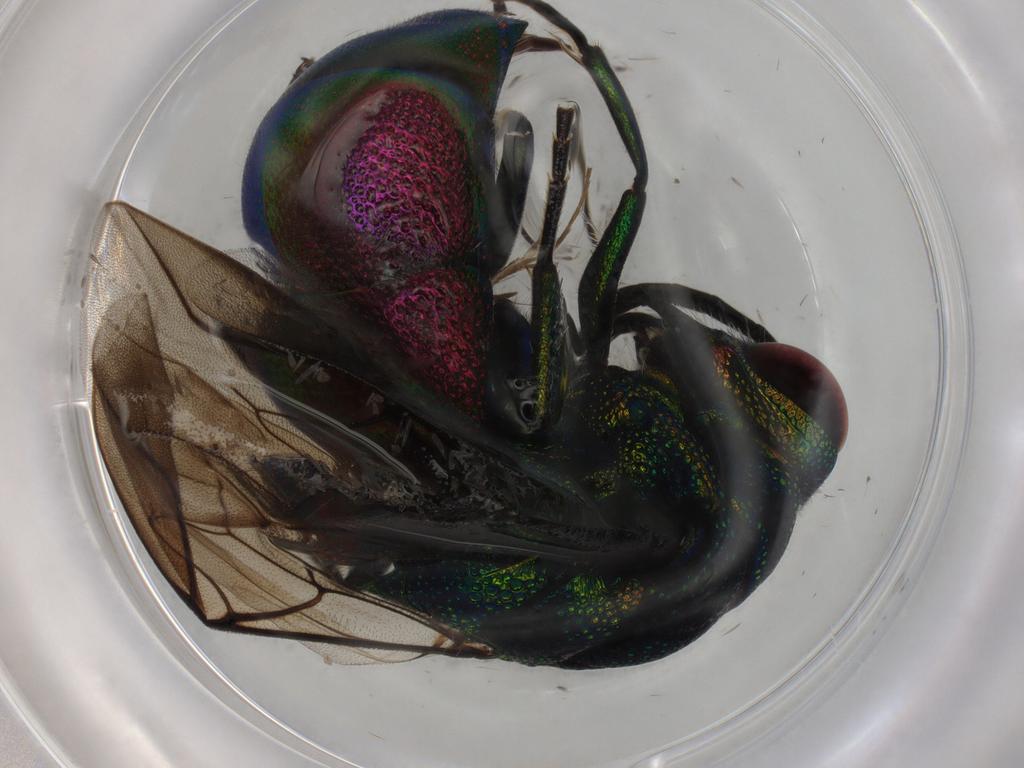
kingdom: Animalia
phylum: Arthropoda
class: Insecta
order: Hymenoptera
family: Chrysididae
